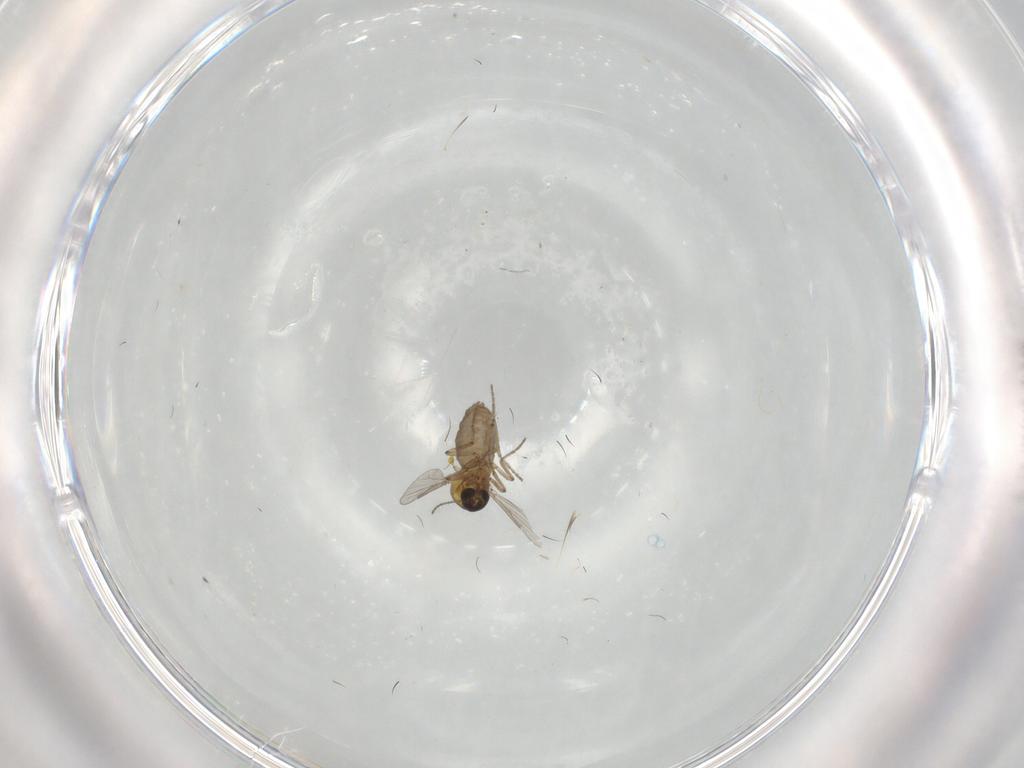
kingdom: Animalia
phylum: Arthropoda
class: Insecta
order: Diptera
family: Ceratopogonidae
